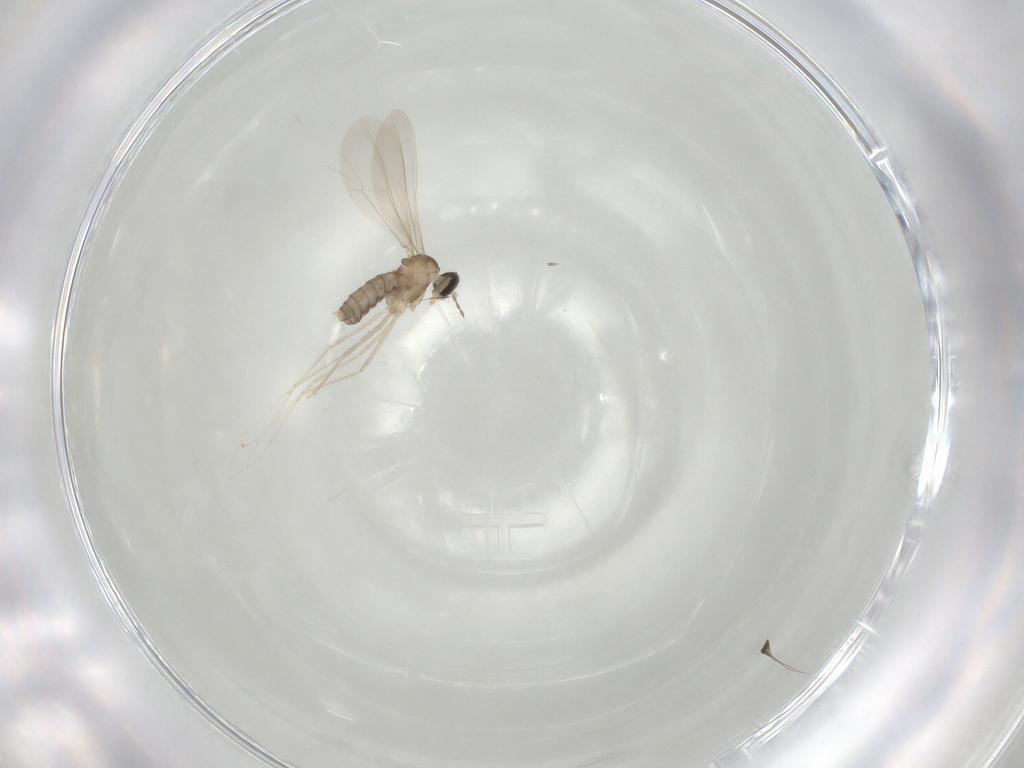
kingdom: Animalia
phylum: Arthropoda
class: Insecta
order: Diptera
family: Cecidomyiidae
